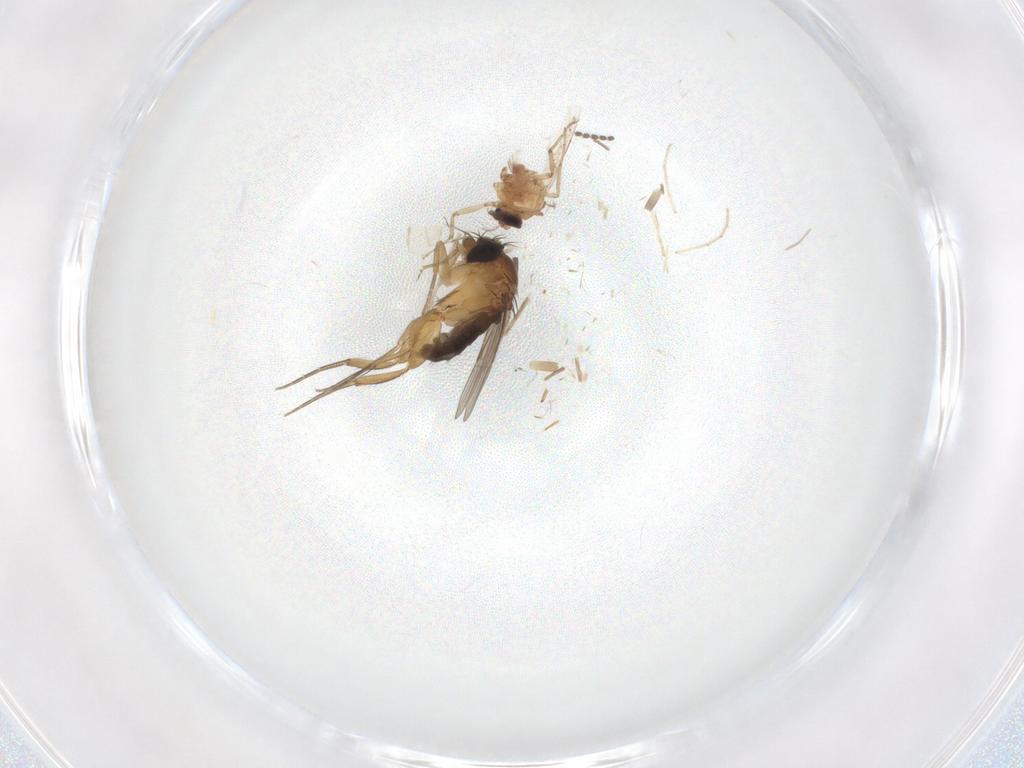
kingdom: Animalia
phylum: Arthropoda
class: Insecta
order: Diptera
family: Phoridae
